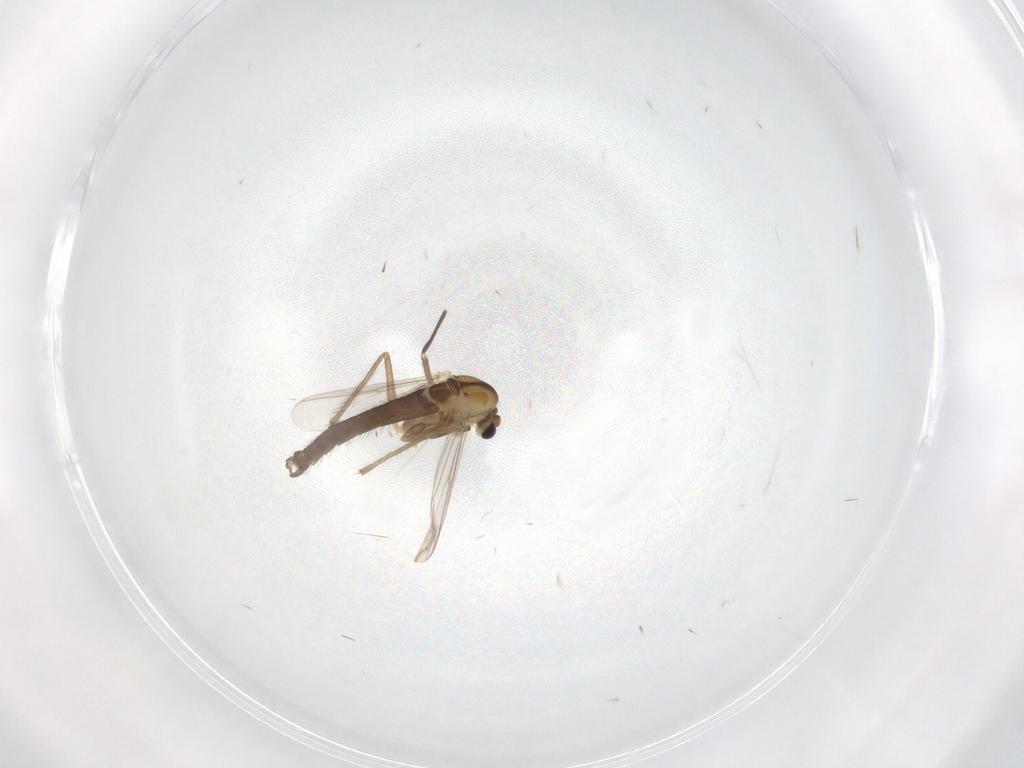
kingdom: Animalia
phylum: Arthropoda
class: Insecta
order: Diptera
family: Chironomidae
